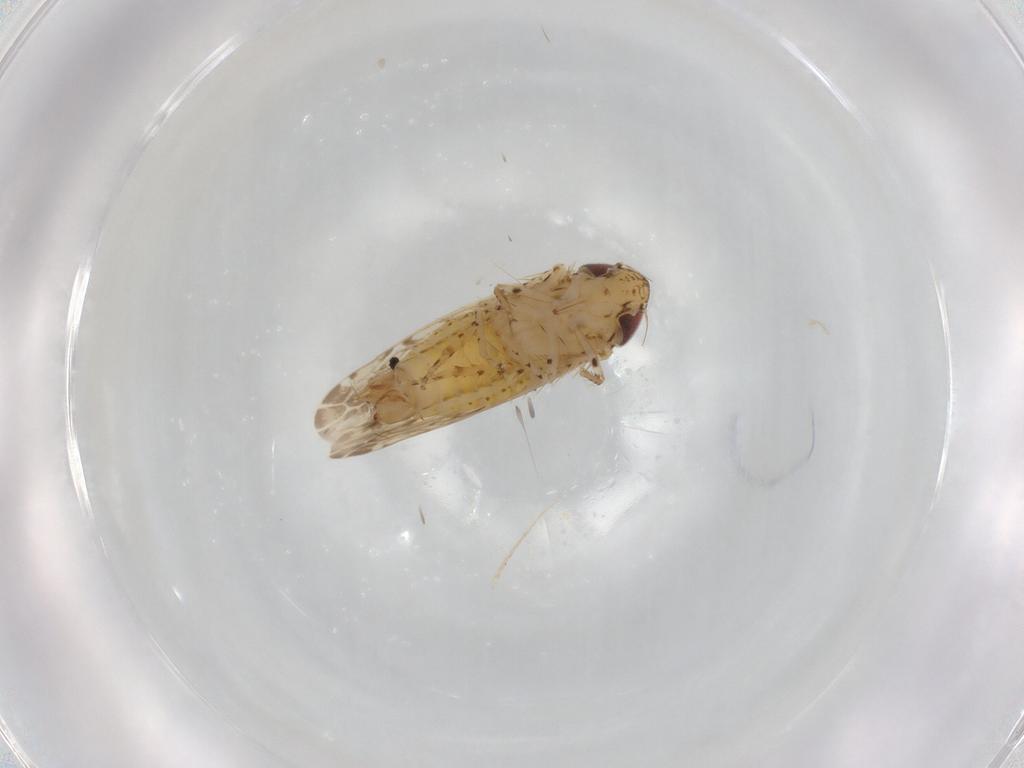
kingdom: Animalia
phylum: Arthropoda
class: Insecta
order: Hemiptera
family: Cicadellidae
